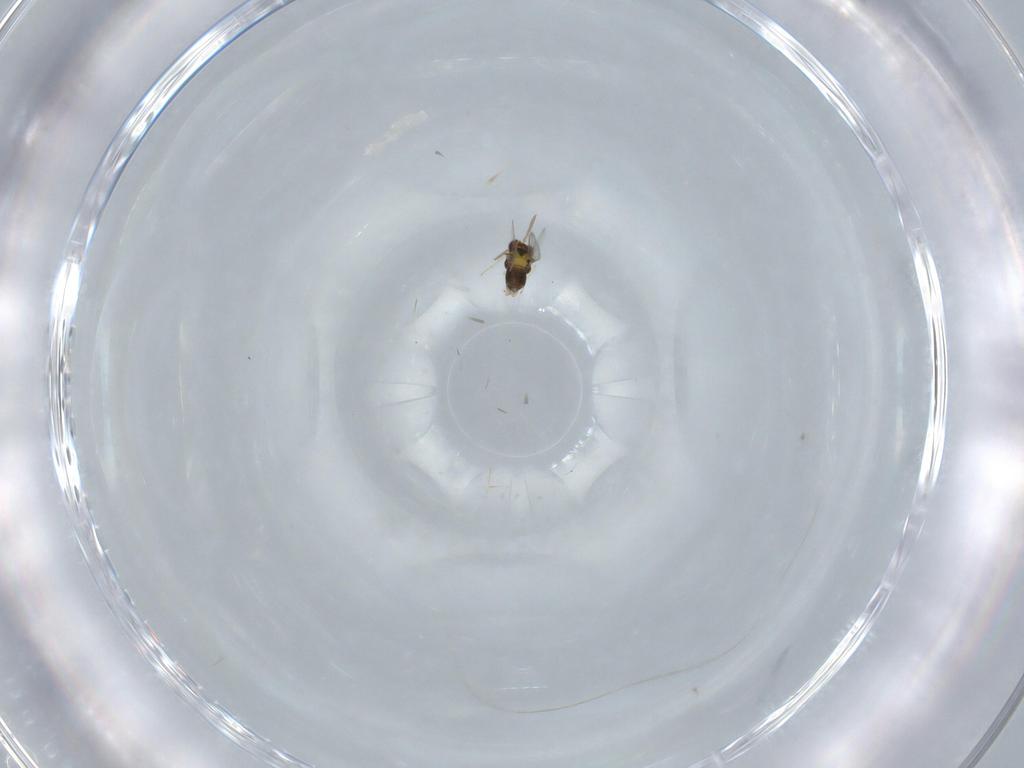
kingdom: Animalia
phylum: Arthropoda
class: Insecta
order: Hymenoptera
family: Aphelinidae
